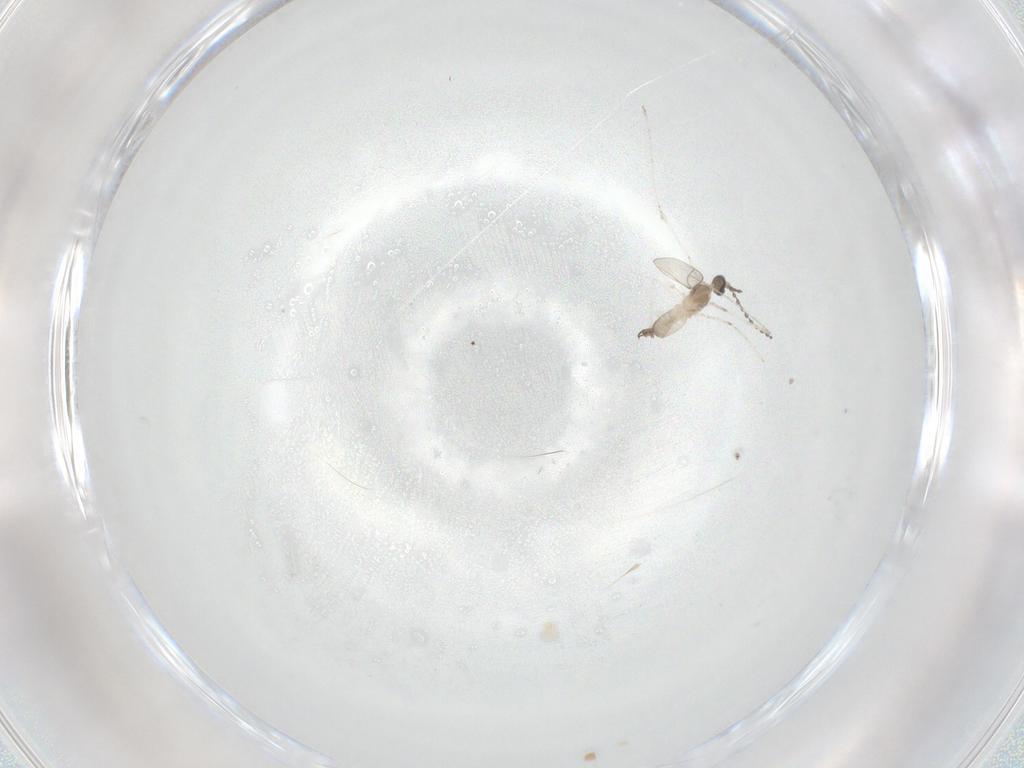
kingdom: Animalia
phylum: Arthropoda
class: Insecta
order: Diptera
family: Cecidomyiidae
